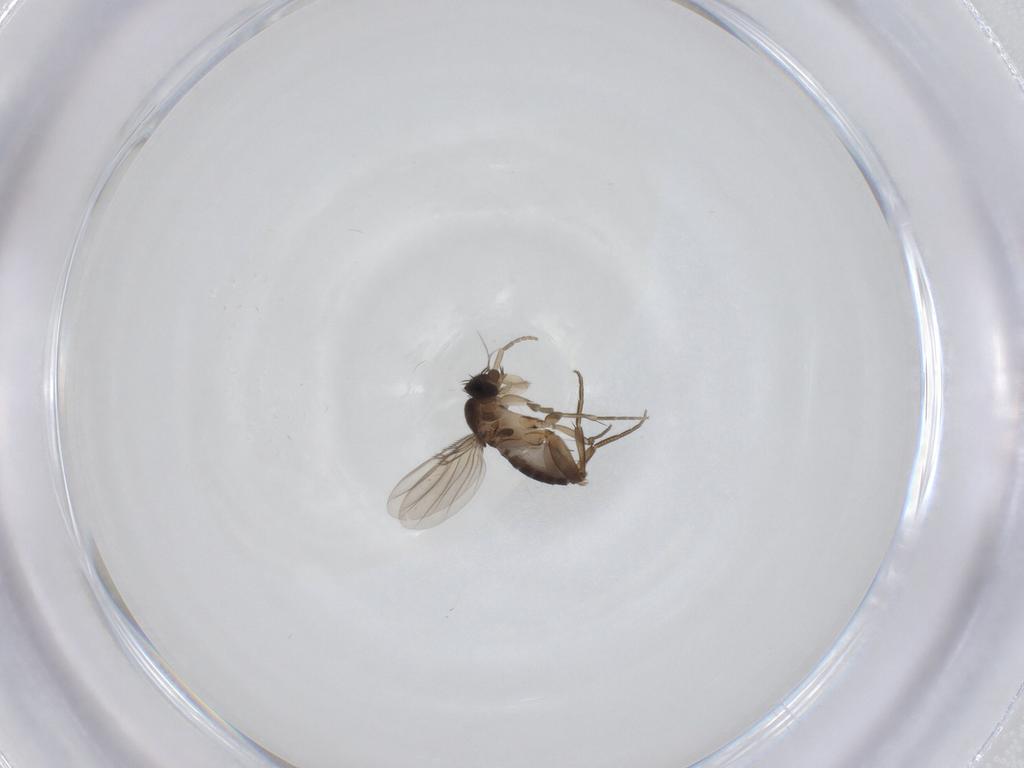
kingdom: Animalia
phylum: Arthropoda
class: Insecta
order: Diptera
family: Phoridae
